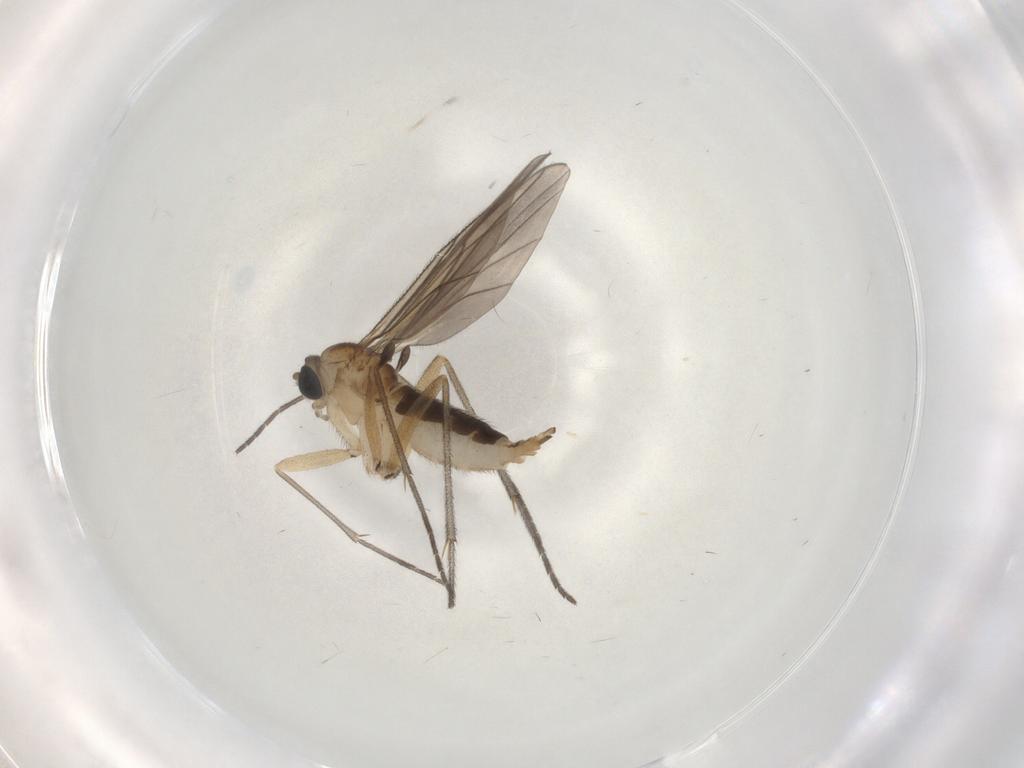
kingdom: Animalia
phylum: Arthropoda
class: Insecta
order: Diptera
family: Sciaridae
